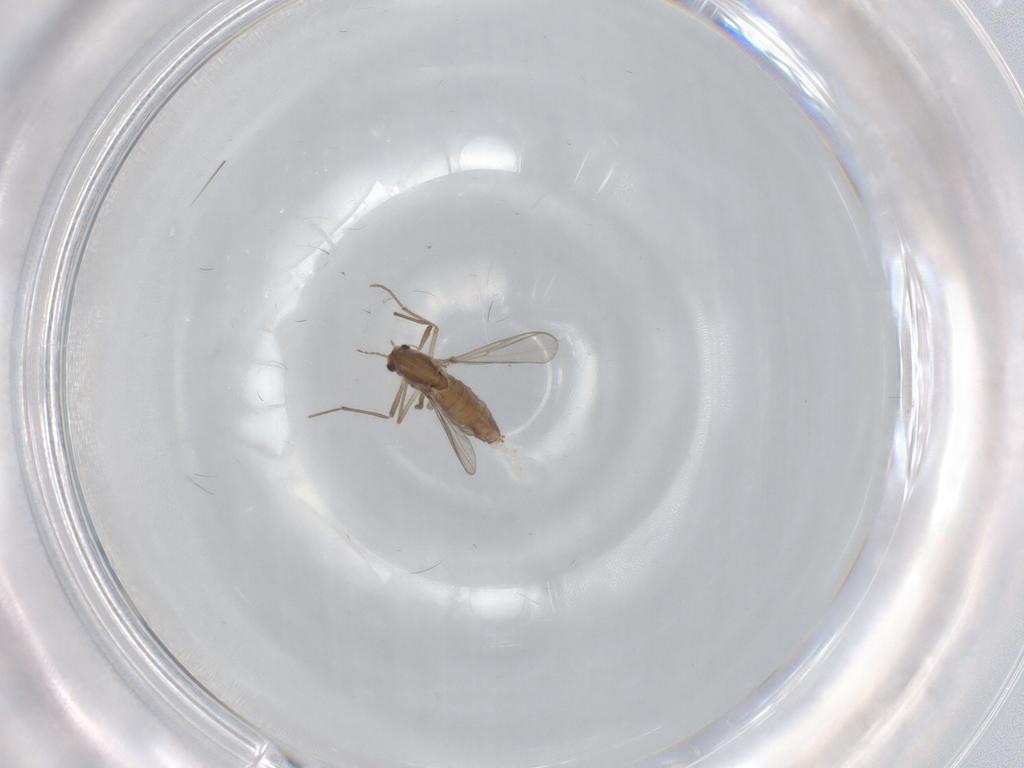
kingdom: Animalia
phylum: Arthropoda
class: Insecta
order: Diptera
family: Chironomidae
